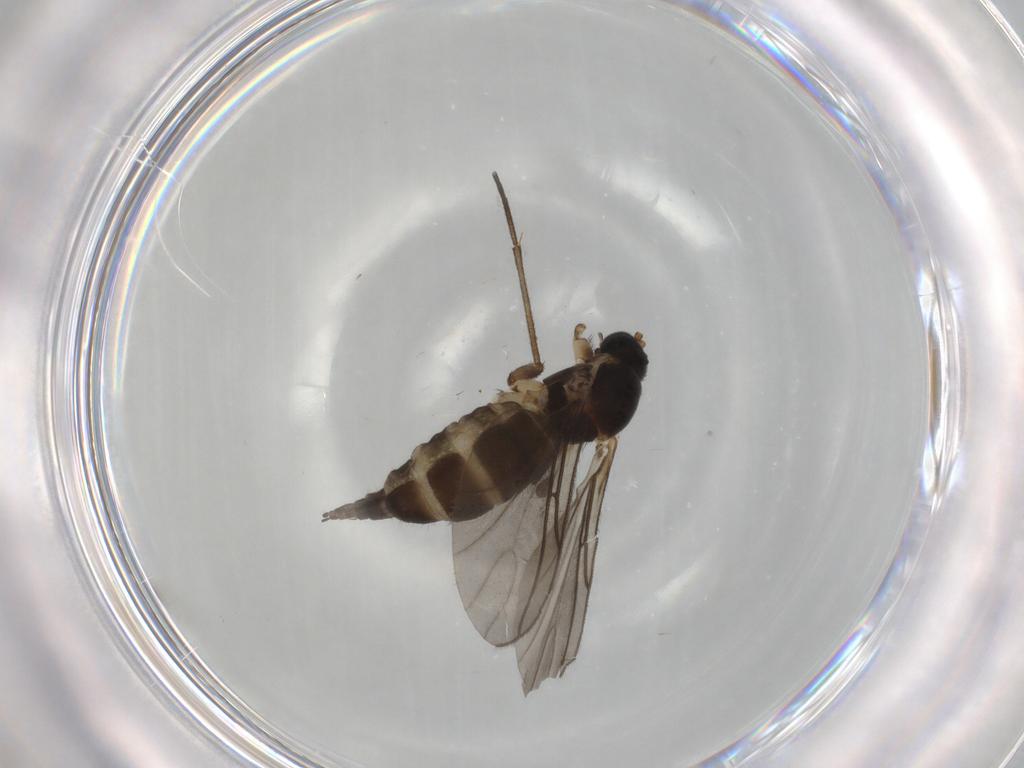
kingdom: Animalia
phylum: Arthropoda
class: Insecta
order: Diptera
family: Sciaridae
